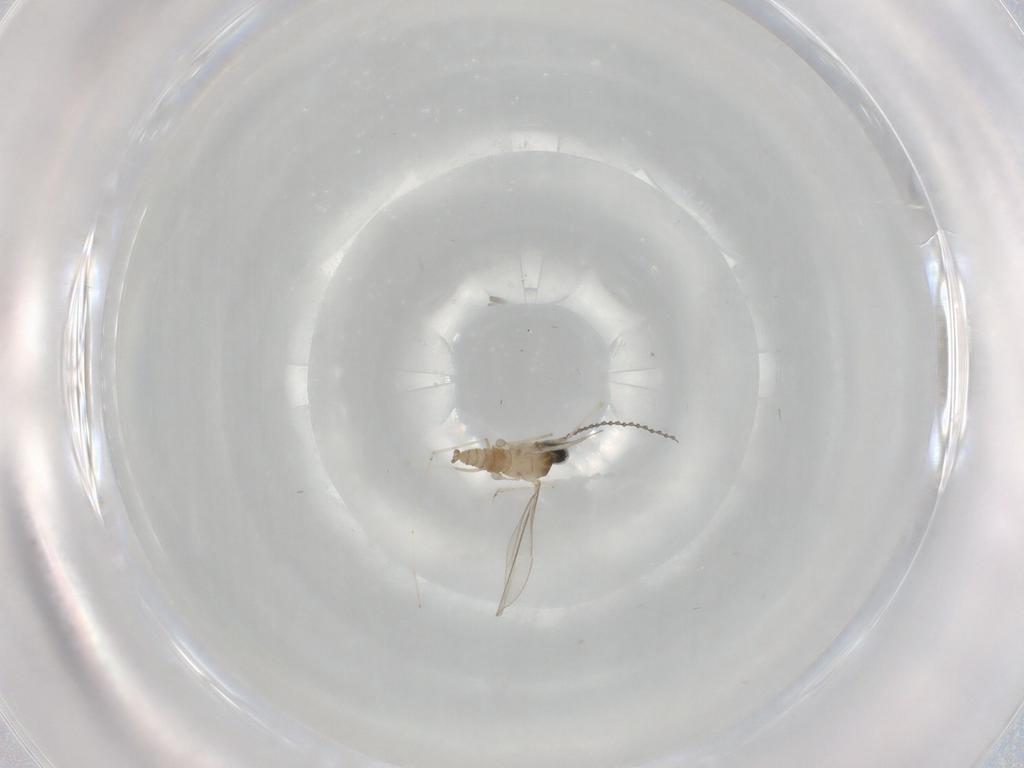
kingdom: Animalia
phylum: Arthropoda
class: Insecta
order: Diptera
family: Cecidomyiidae
